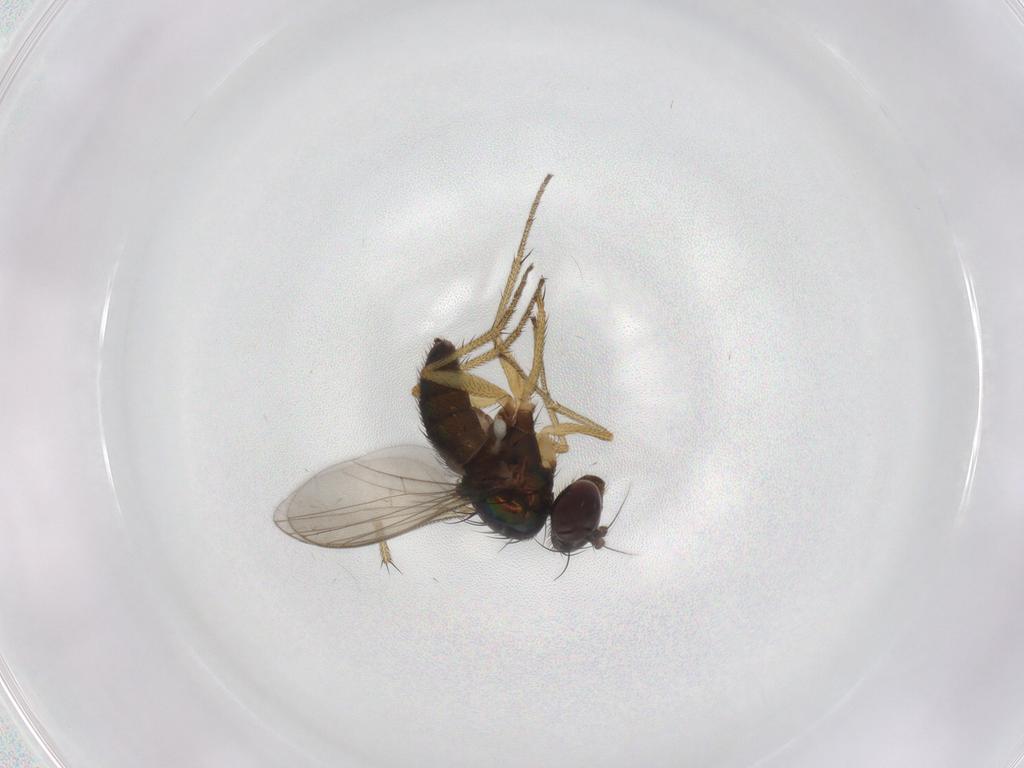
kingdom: Animalia
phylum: Arthropoda
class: Insecta
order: Diptera
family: Dolichopodidae
